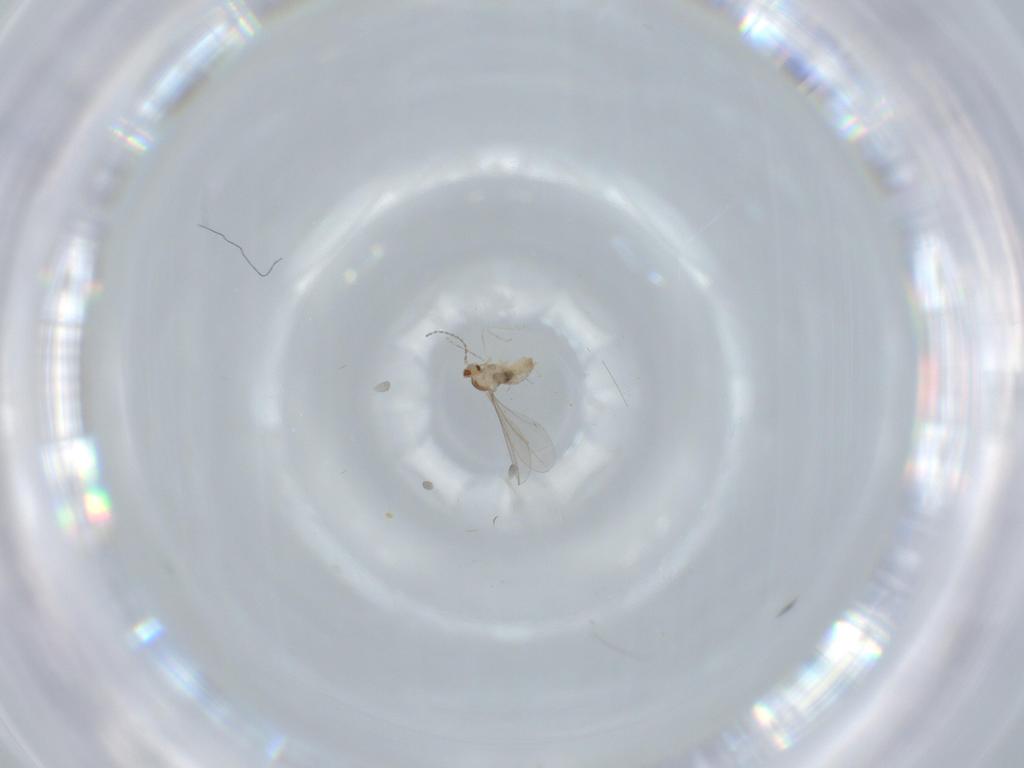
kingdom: Animalia
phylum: Arthropoda
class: Insecta
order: Diptera
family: Cecidomyiidae
